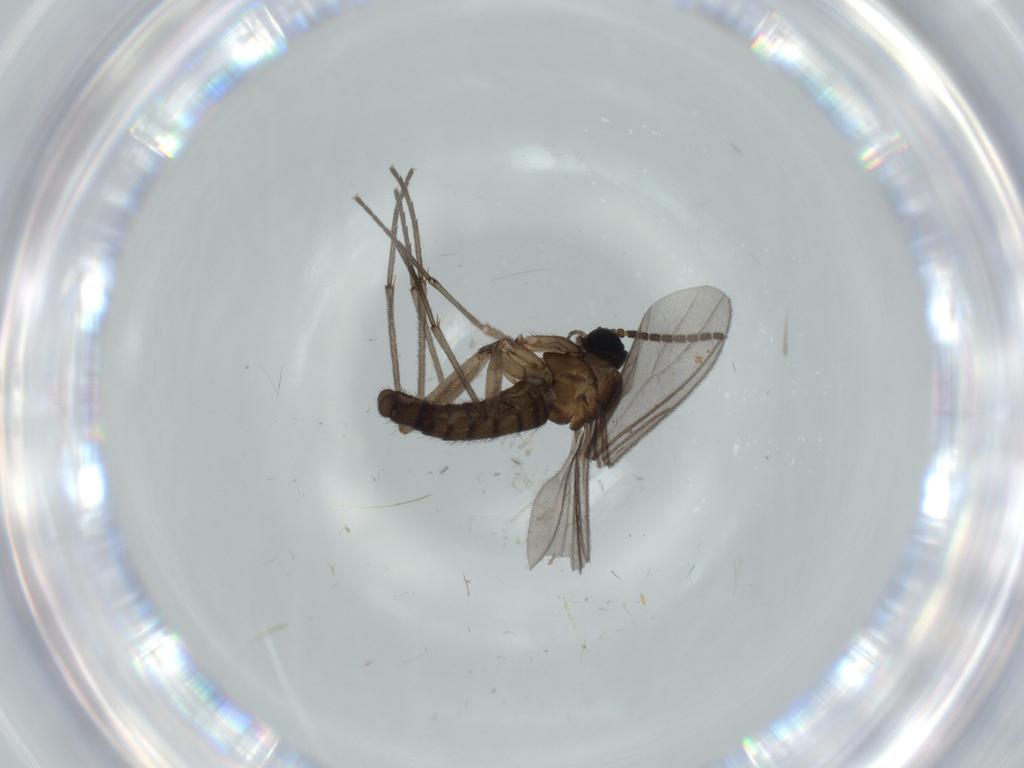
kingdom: Animalia
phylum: Arthropoda
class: Insecta
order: Diptera
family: Sciaridae
